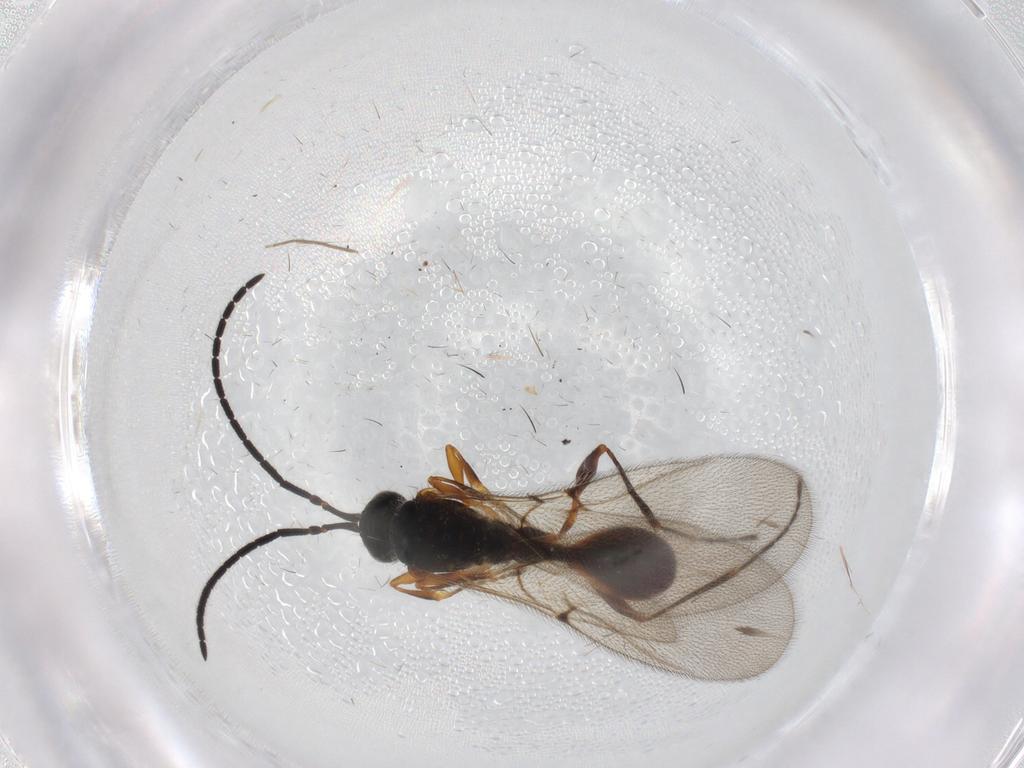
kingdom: Animalia
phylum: Arthropoda
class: Insecta
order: Hymenoptera
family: Diapriidae
